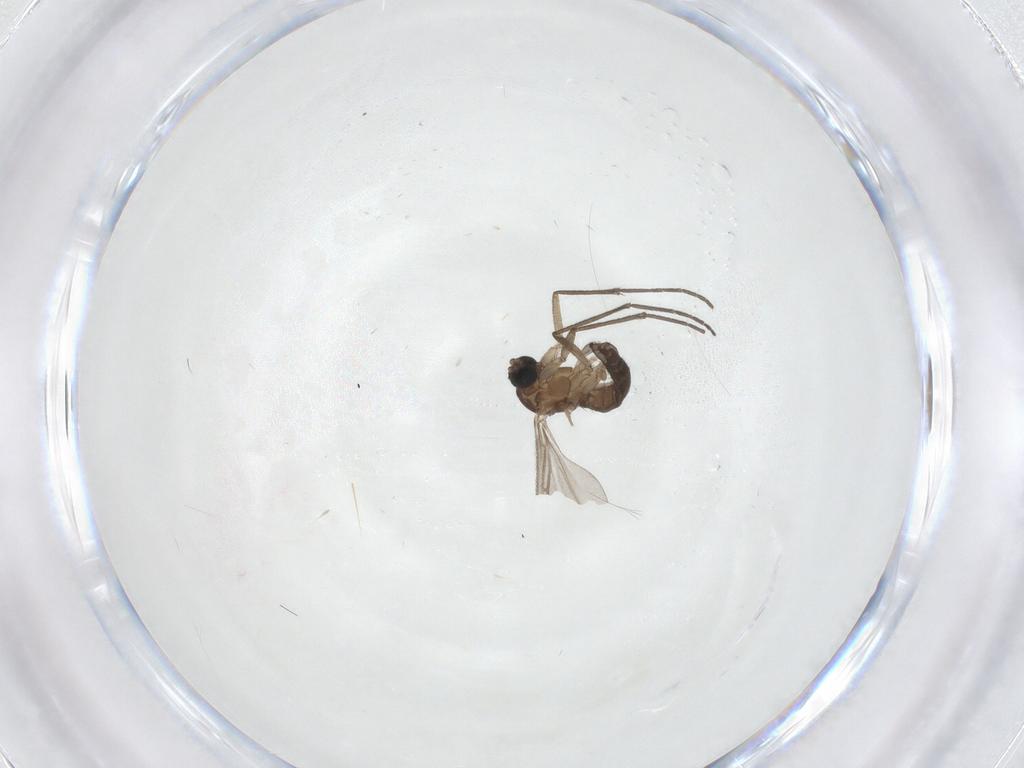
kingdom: Animalia
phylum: Arthropoda
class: Insecta
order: Diptera
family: Sciaridae
